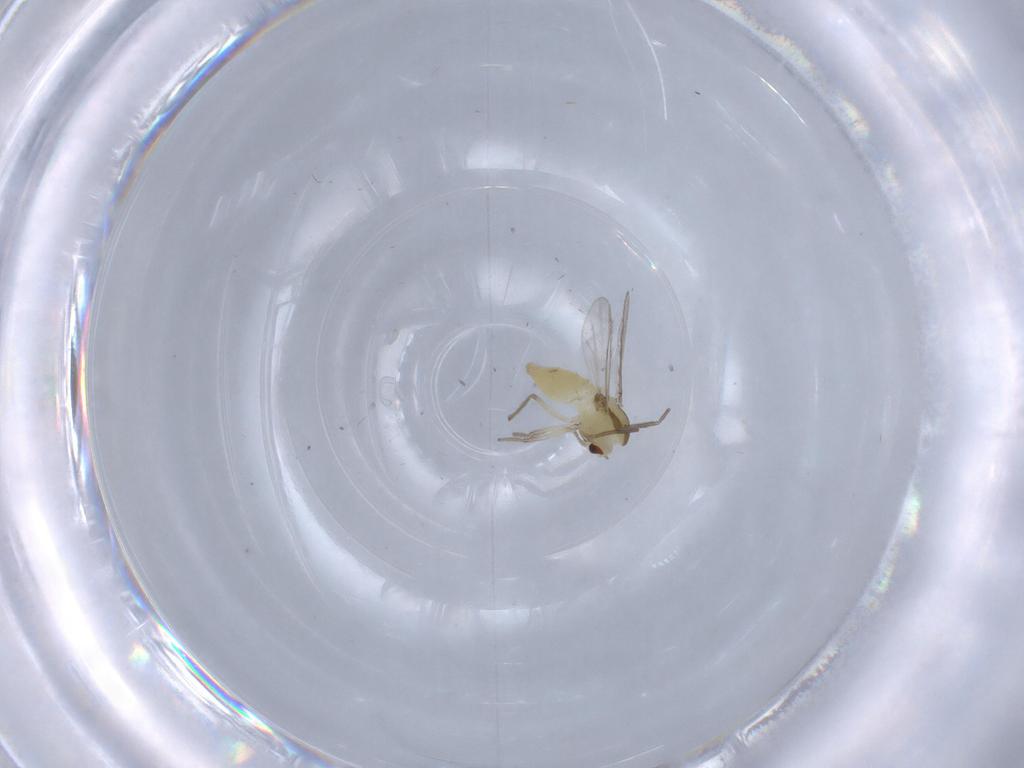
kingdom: Animalia
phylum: Arthropoda
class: Insecta
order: Diptera
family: Chironomidae
